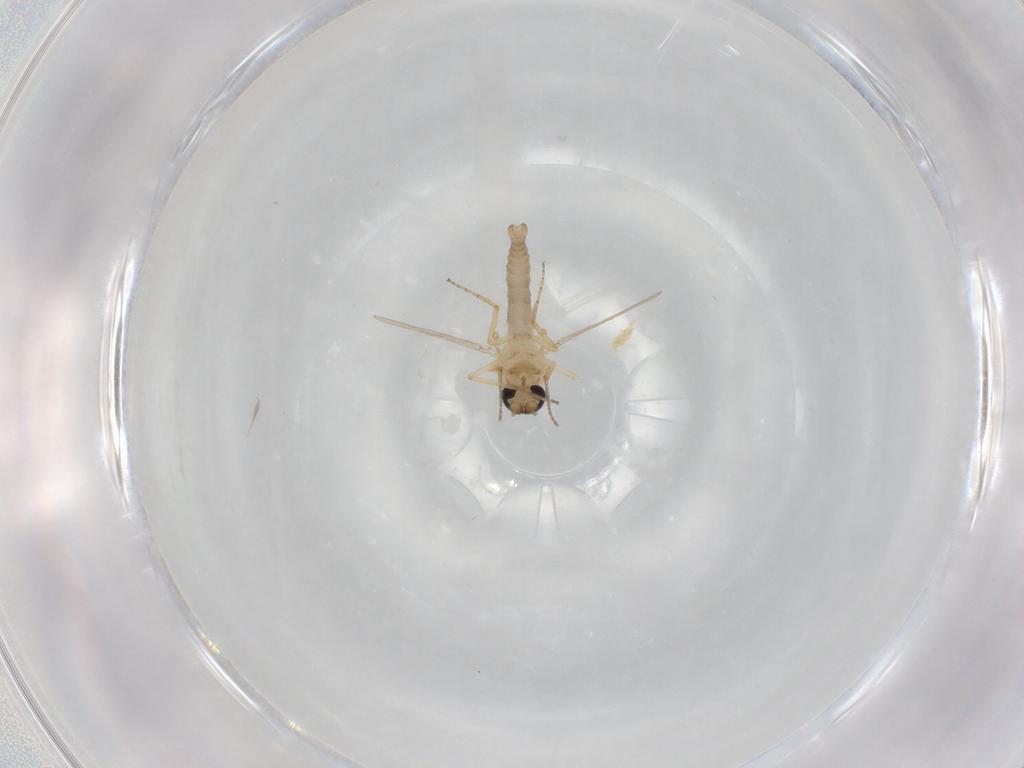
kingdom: Animalia
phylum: Arthropoda
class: Insecta
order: Diptera
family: Ceratopogonidae
